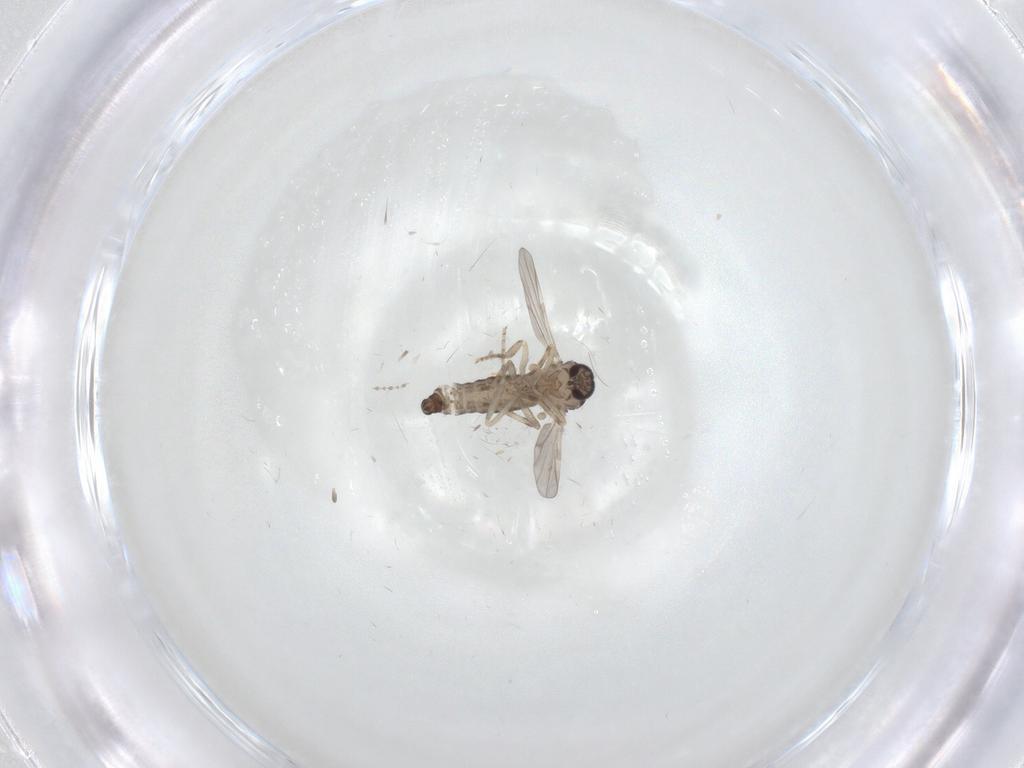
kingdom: Animalia
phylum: Arthropoda
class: Insecta
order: Diptera
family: Ceratopogonidae
